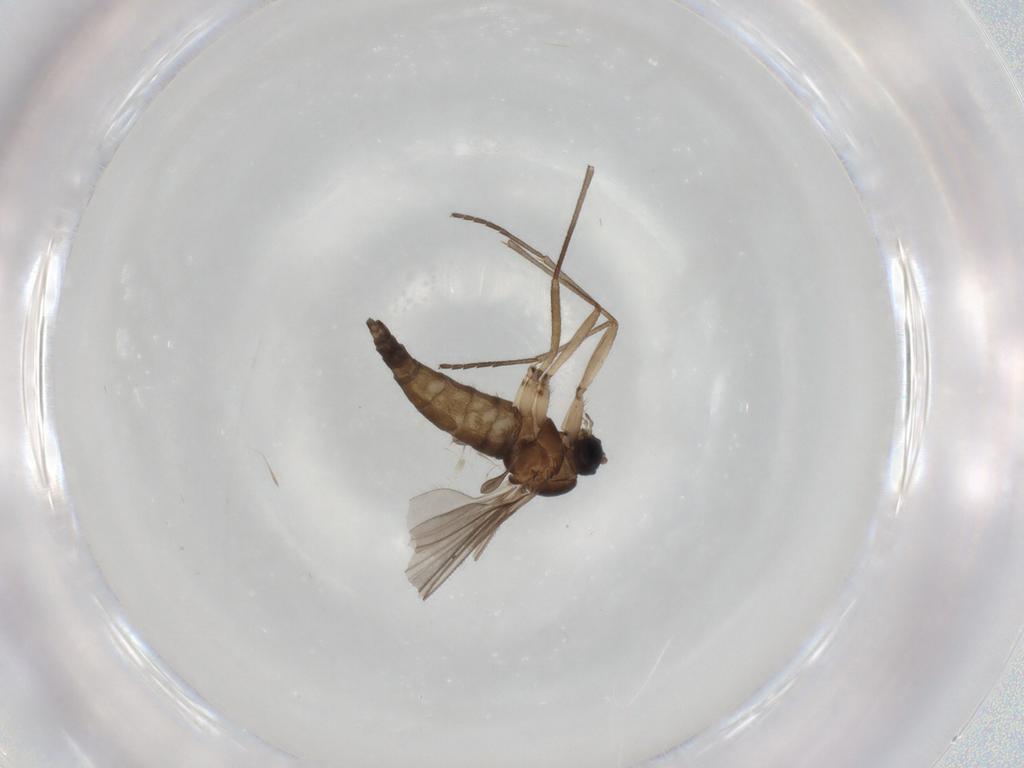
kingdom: Animalia
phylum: Arthropoda
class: Insecta
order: Diptera
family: Sciaridae
